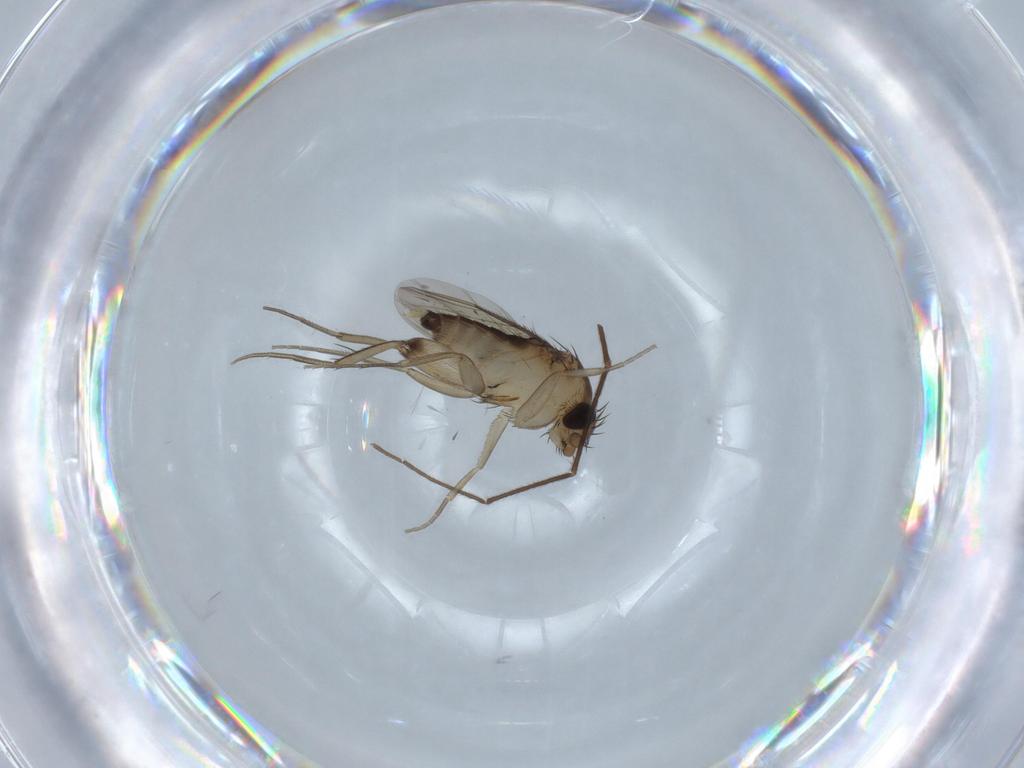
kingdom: Animalia
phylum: Arthropoda
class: Insecta
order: Diptera
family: Chironomidae
